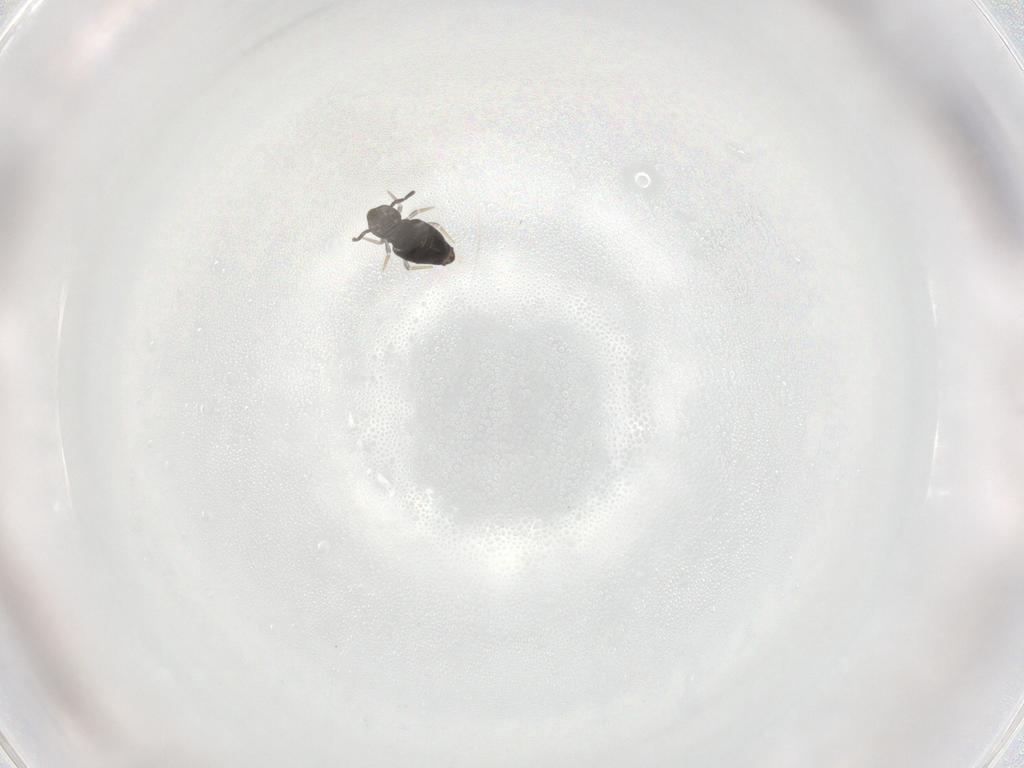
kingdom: Animalia
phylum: Arthropoda
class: Collembola
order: Symphypleona
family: Katiannidae
